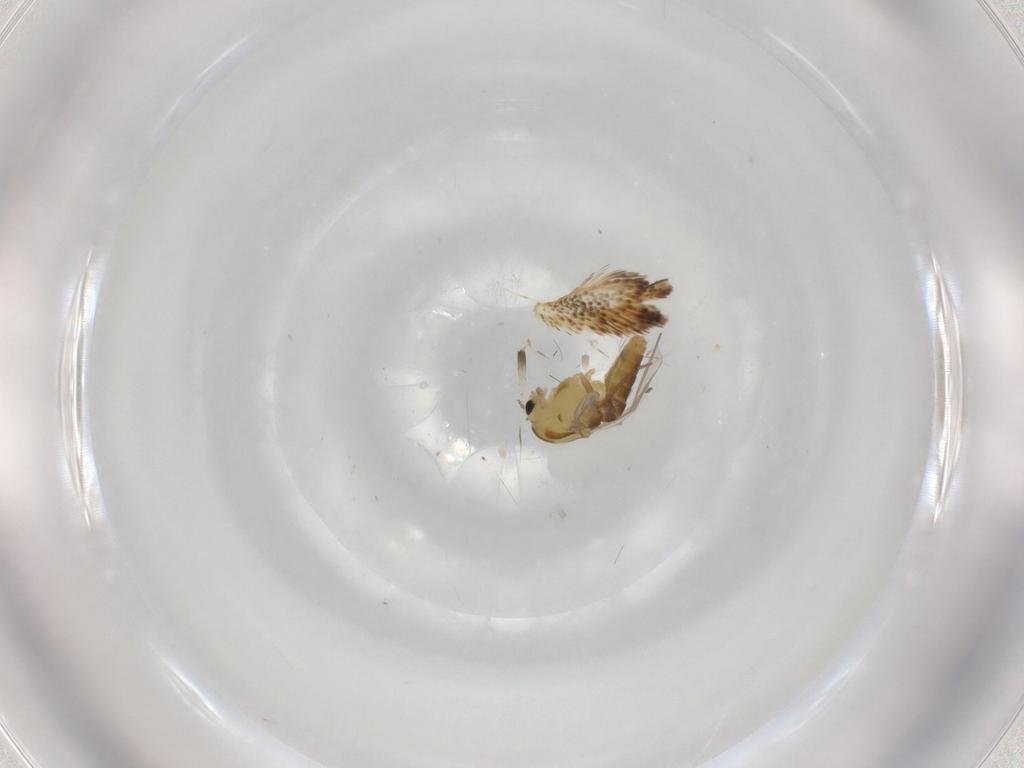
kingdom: Animalia
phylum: Arthropoda
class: Insecta
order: Diptera
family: Chironomidae
